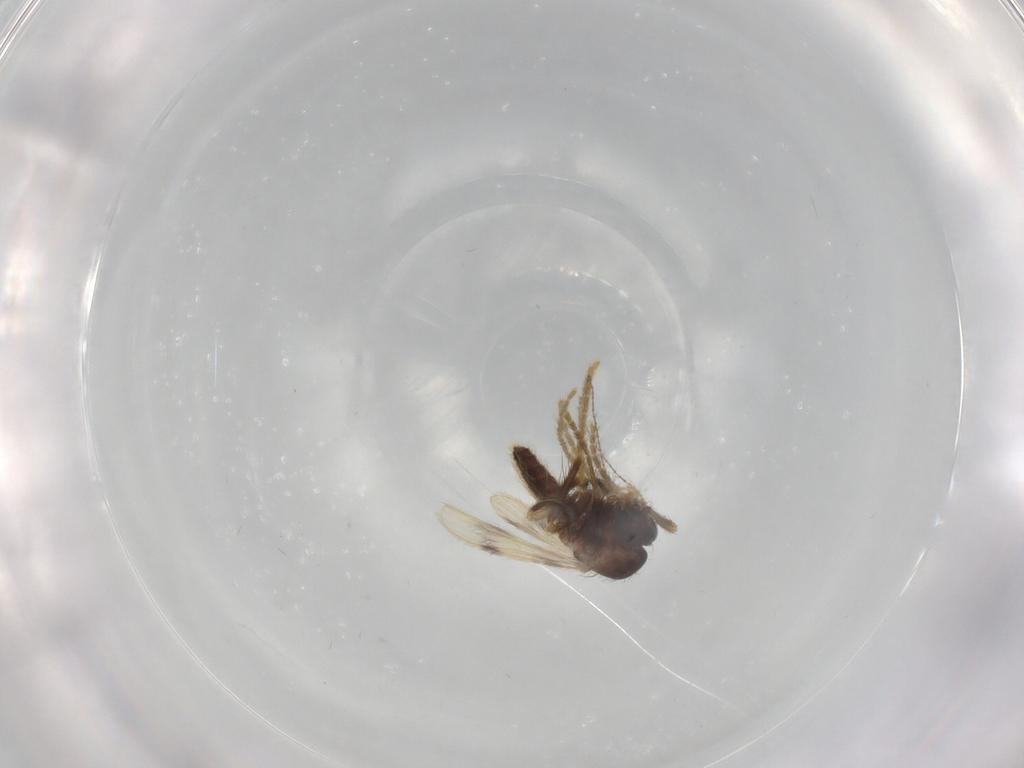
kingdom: Animalia
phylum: Arthropoda
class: Insecta
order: Diptera
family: Corethrellidae
